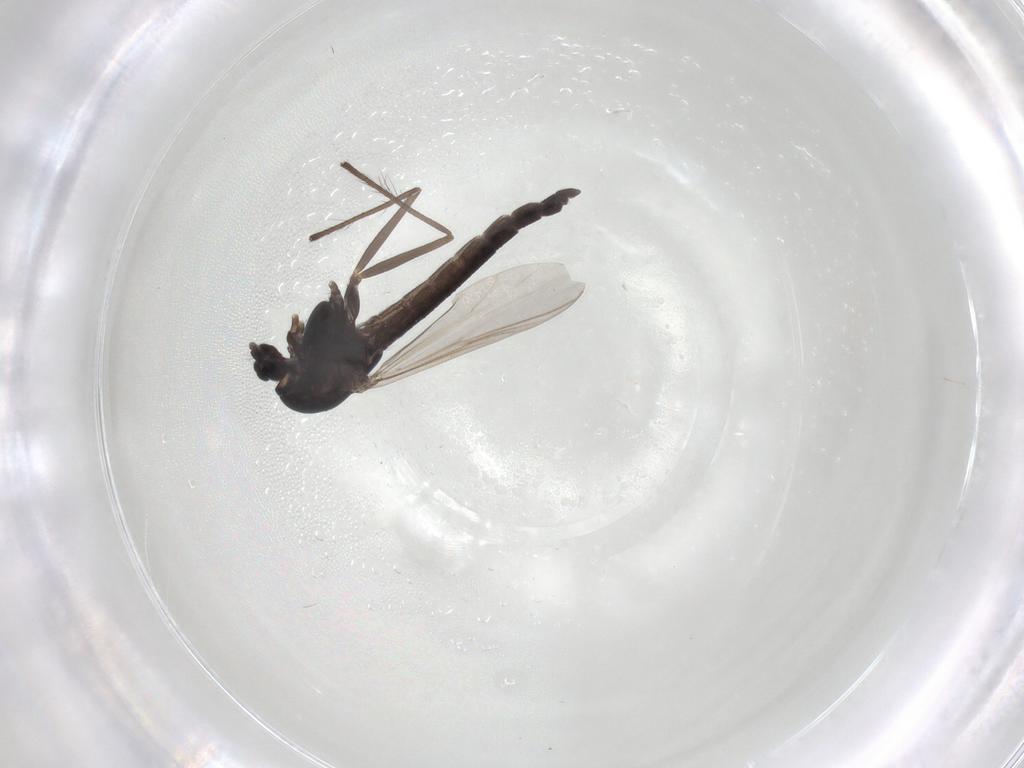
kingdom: Animalia
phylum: Arthropoda
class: Insecta
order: Diptera
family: Chironomidae
